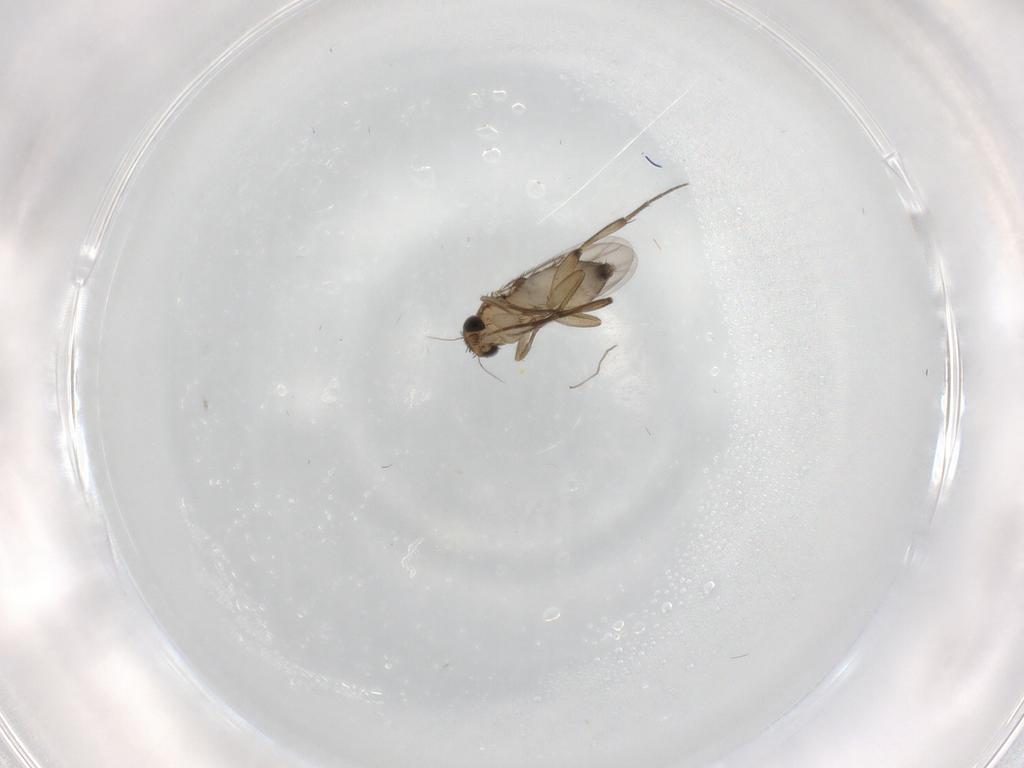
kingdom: Animalia
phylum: Arthropoda
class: Insecta
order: Diptera
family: Phoridae
